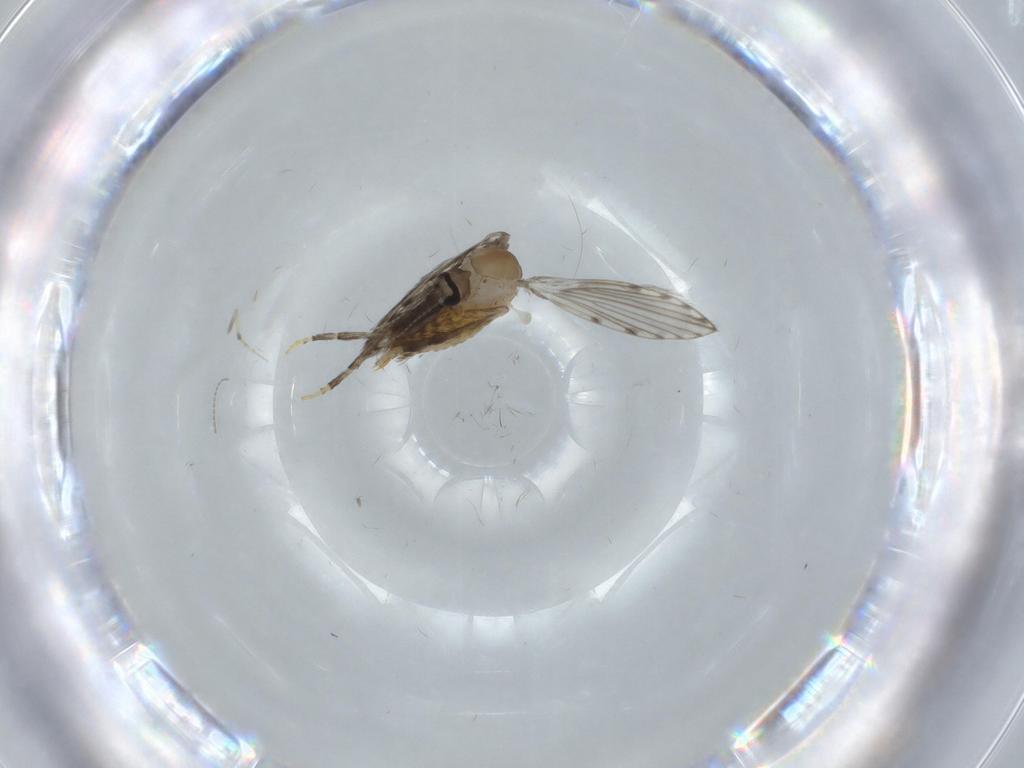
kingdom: Animalia
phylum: Arthropoda
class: Insecta
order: Diptera
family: Psychodidae
